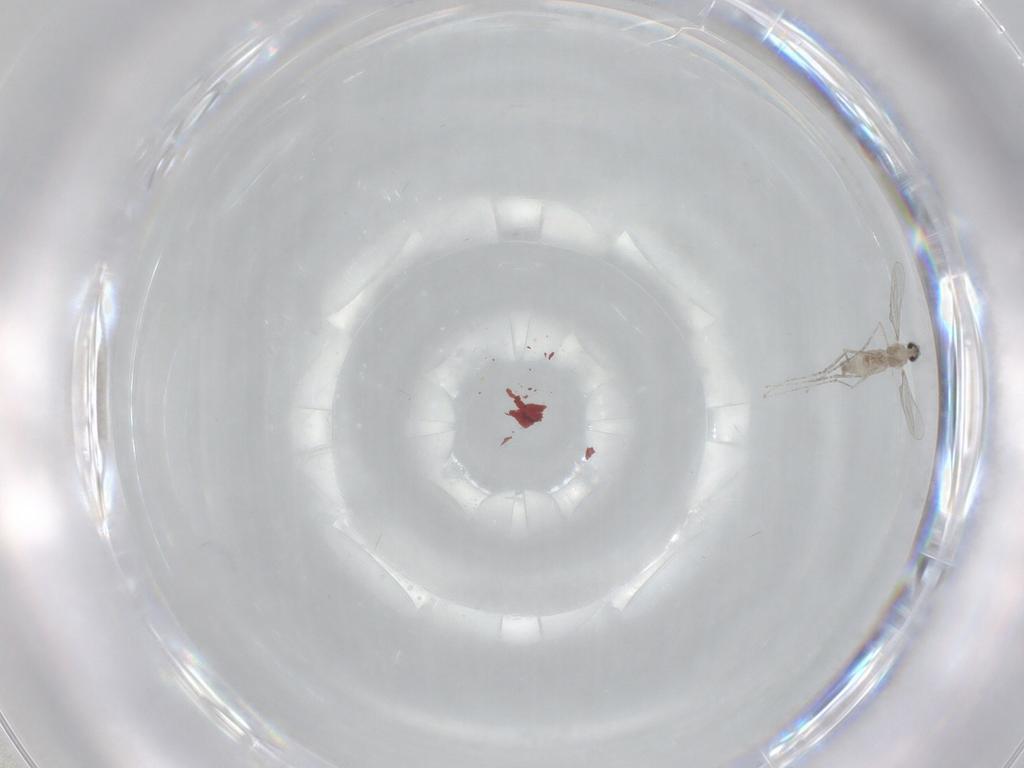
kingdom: Animalia
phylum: Arthropoda
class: Insecta
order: Diptera
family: Cecidomyiidae
